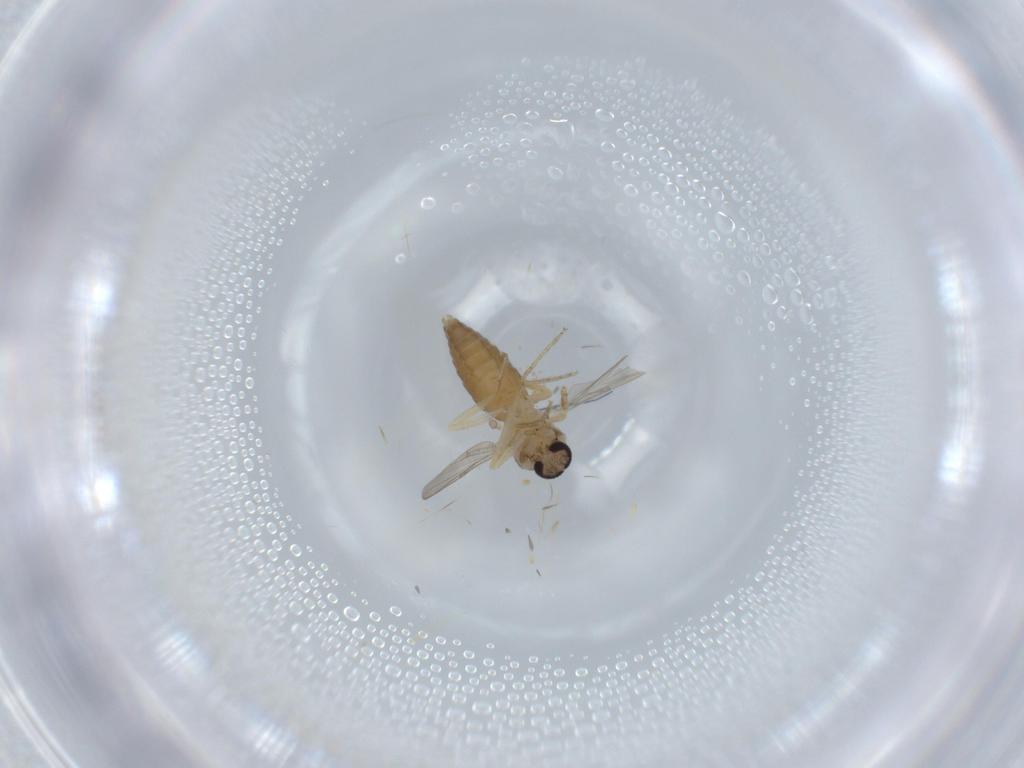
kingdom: Animalia
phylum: Arthropoda
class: Insecta
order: Diptera
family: Ceratopogonidae
